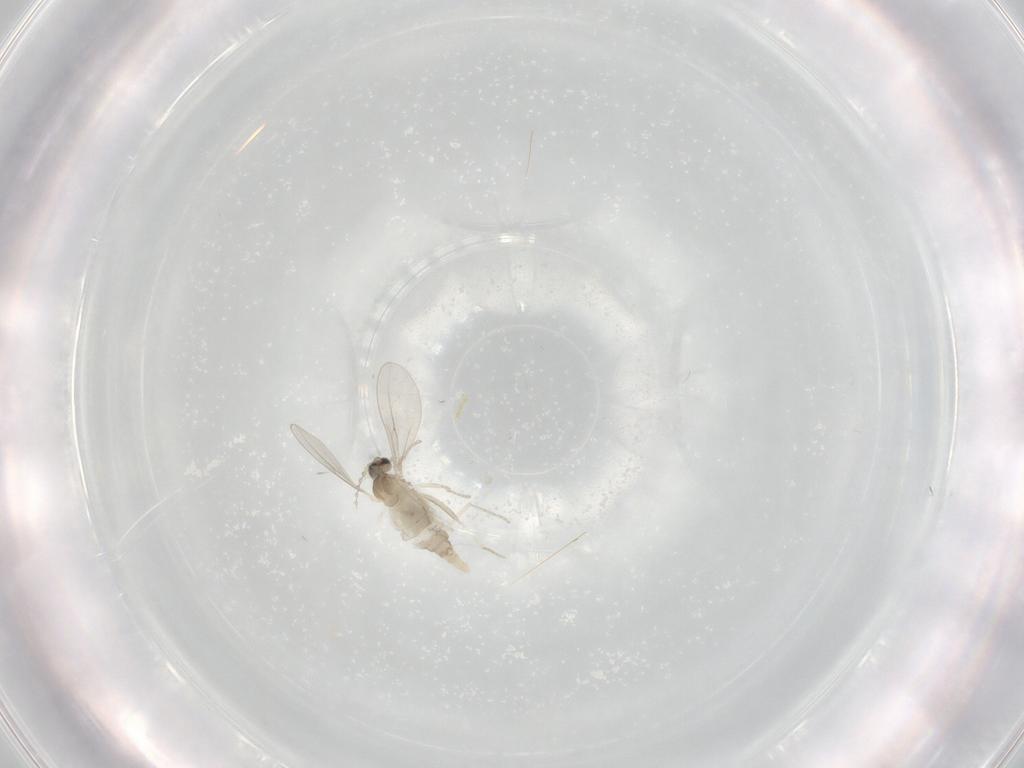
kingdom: Animalia
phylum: Arthropoda
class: Insecta
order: Diptera
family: Cecidomyiidae
